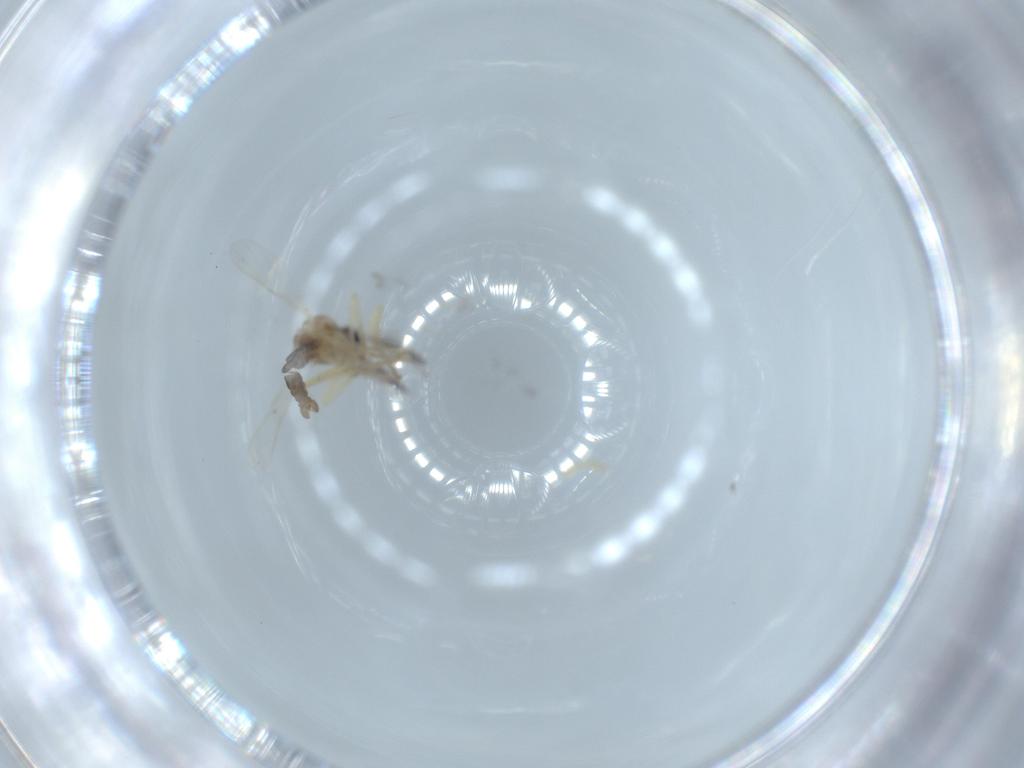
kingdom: Animalia
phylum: Arthropoda
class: Insecta
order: Diptera
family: Ceratopogonidae
